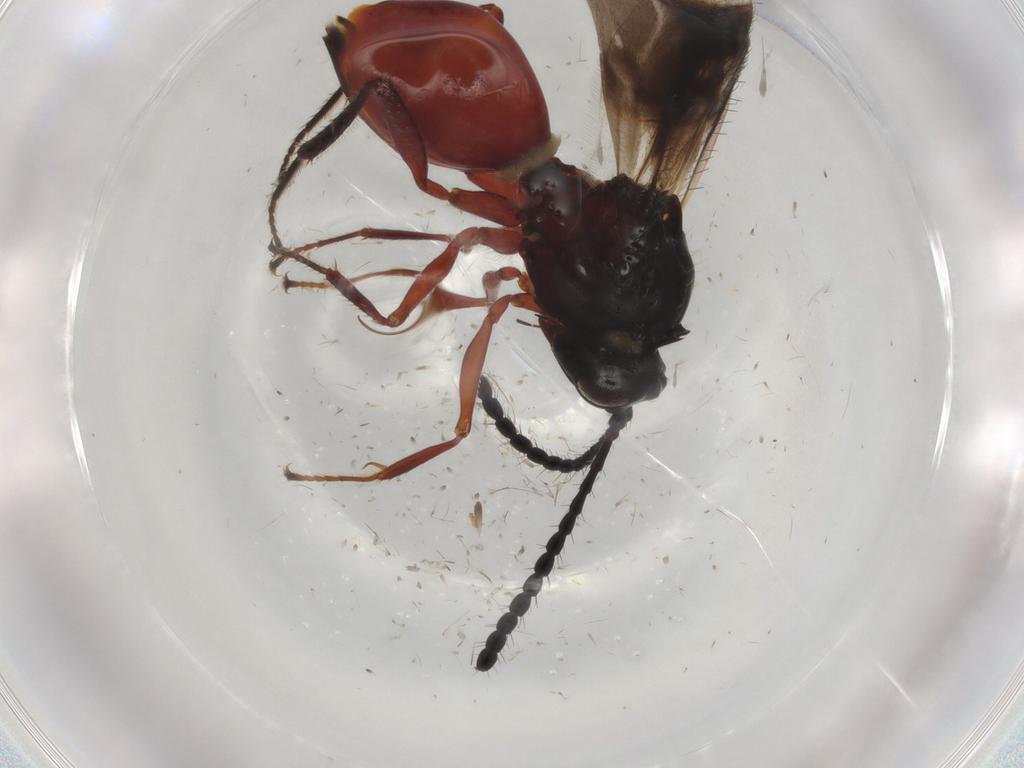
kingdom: Animalia
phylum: Arthropoda
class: Insecta
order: Hymenoptera
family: Figitidae
